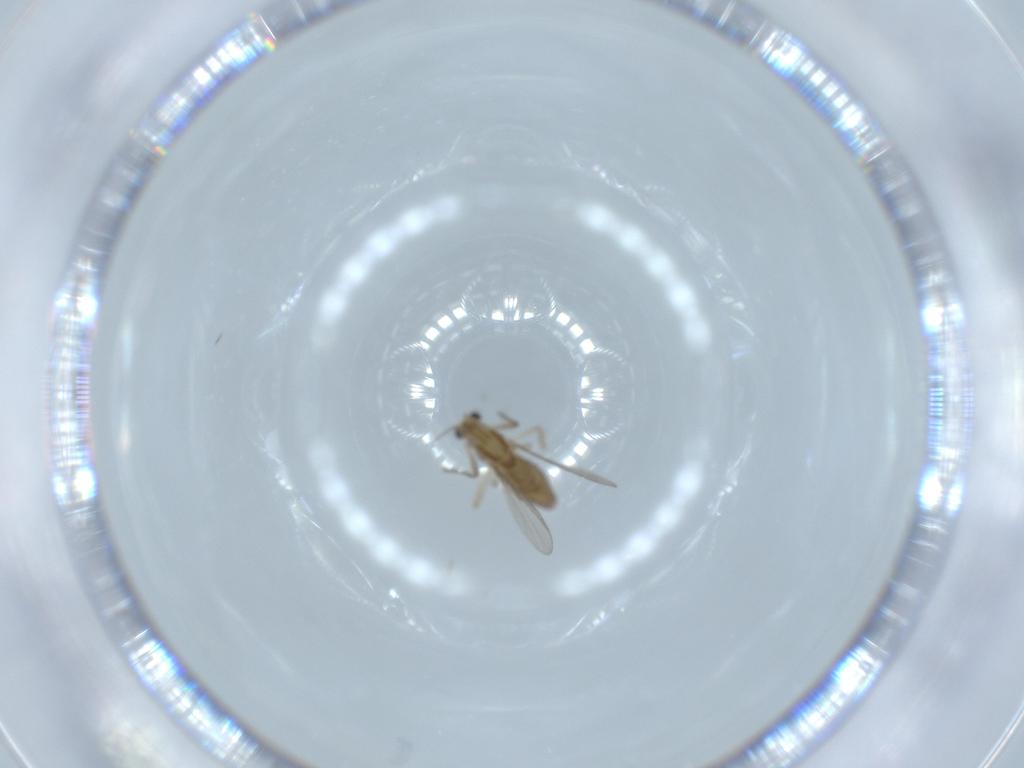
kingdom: Animalia
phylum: Arthropoda
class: Insecta
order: Diptera
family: Chironomidae
